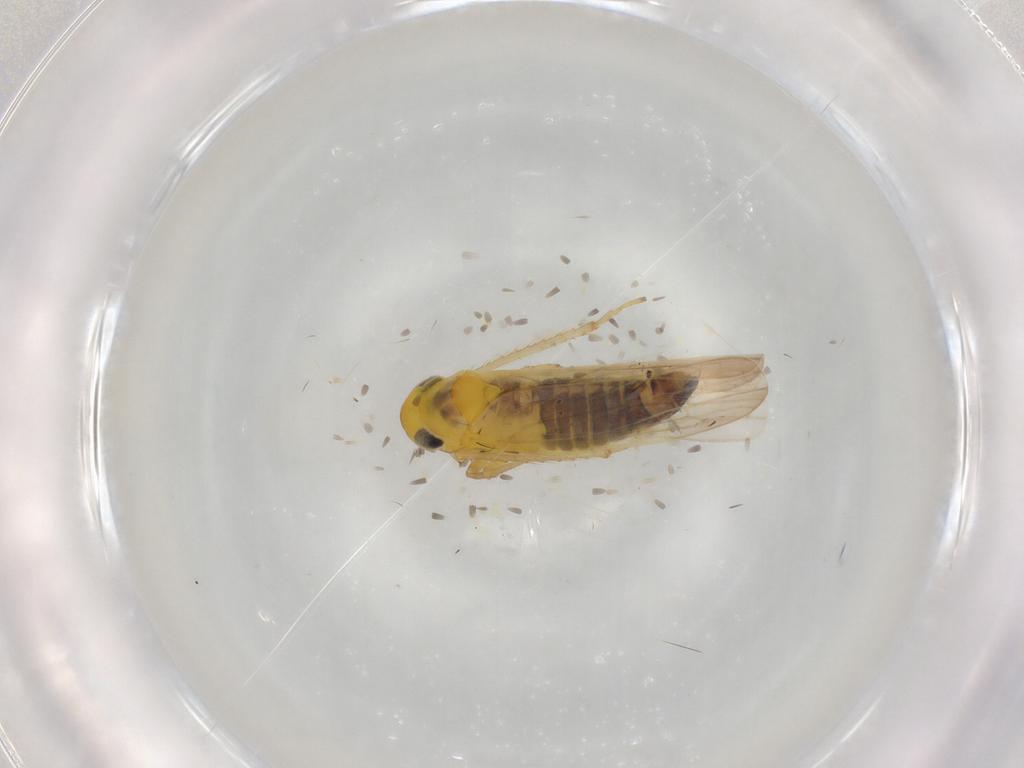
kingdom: Animalia
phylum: Arthropoda
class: Insecta
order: Hemiptera
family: Cicadellidae
